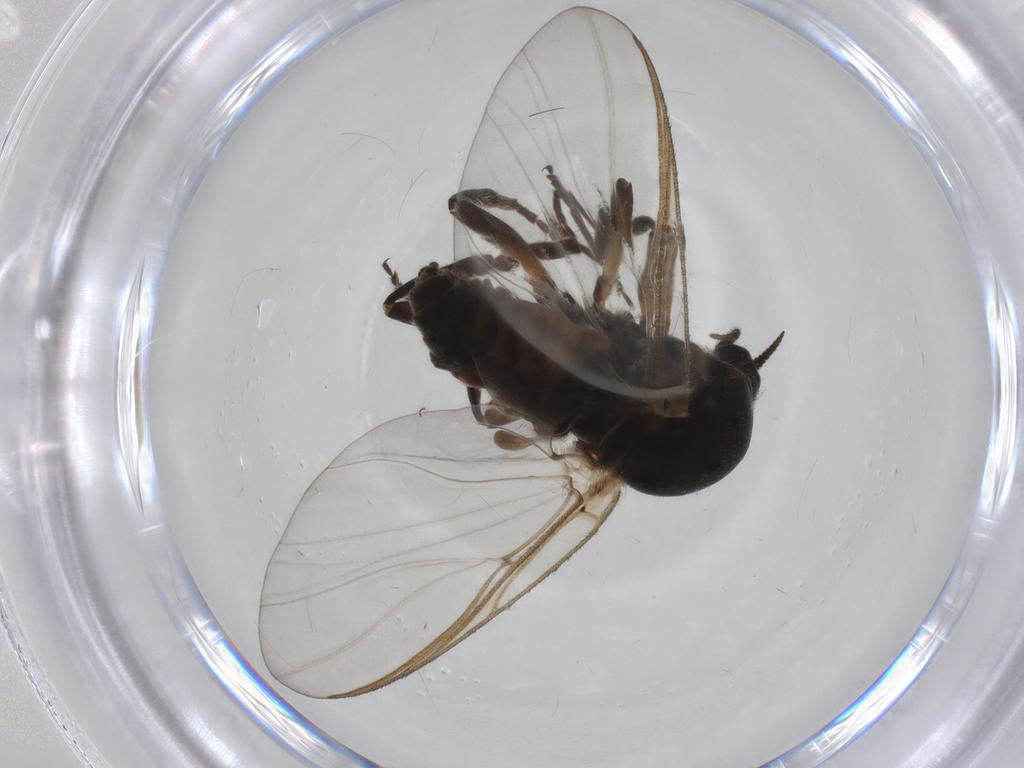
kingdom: Animalia
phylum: Arthropoda
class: Insecta
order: Diptera
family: Simuliidae
